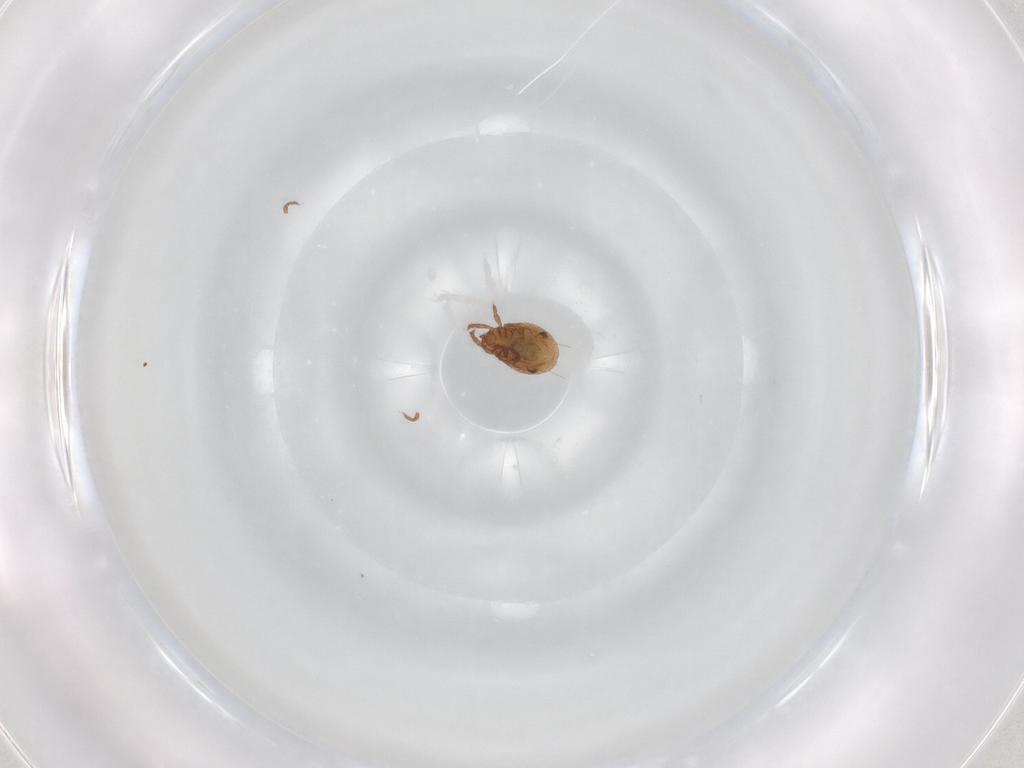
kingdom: Animalia
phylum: Arthropoda
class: Arachnida
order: Sarcoptiformes
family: Phenopelopidae
